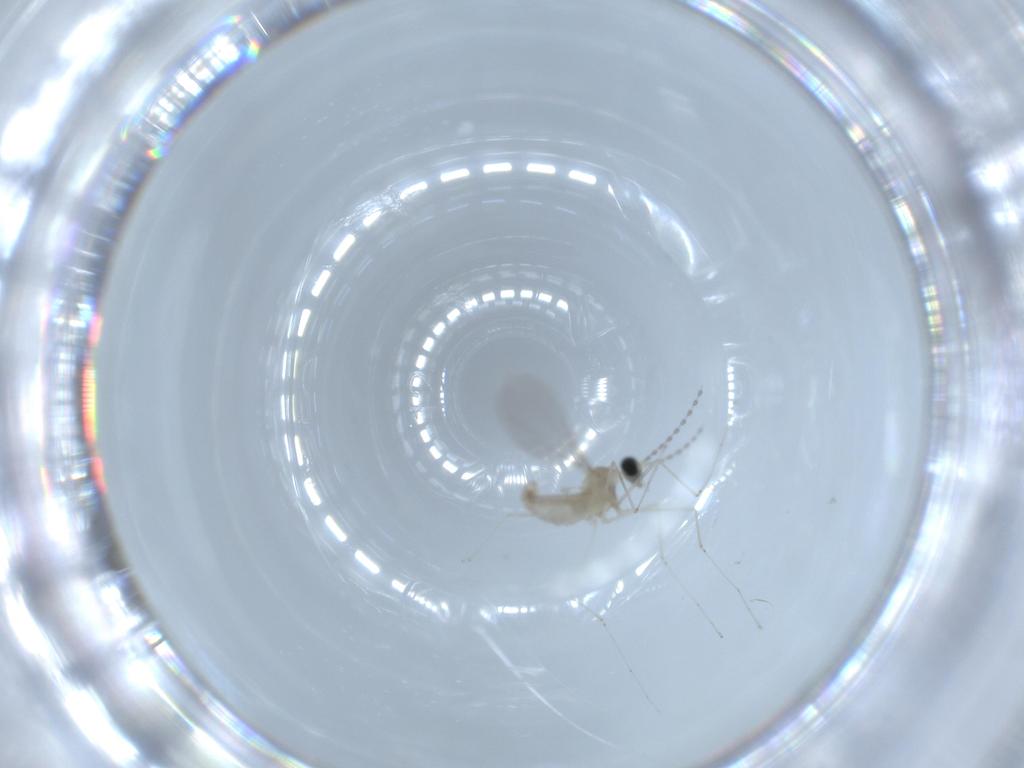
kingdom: Animalia
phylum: Arthropoda
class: Insecta
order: Diptera
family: Cecidomyiidae
